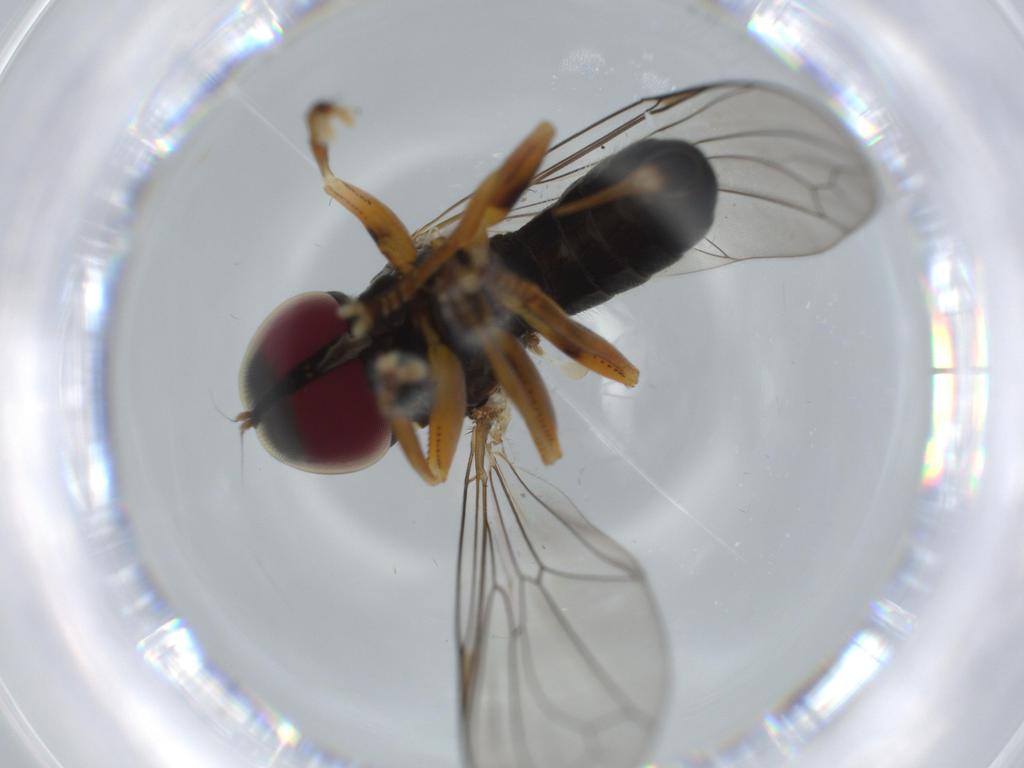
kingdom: Animalia
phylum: Arthropoda
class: Insecta
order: Diptera
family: Pipunculidae
